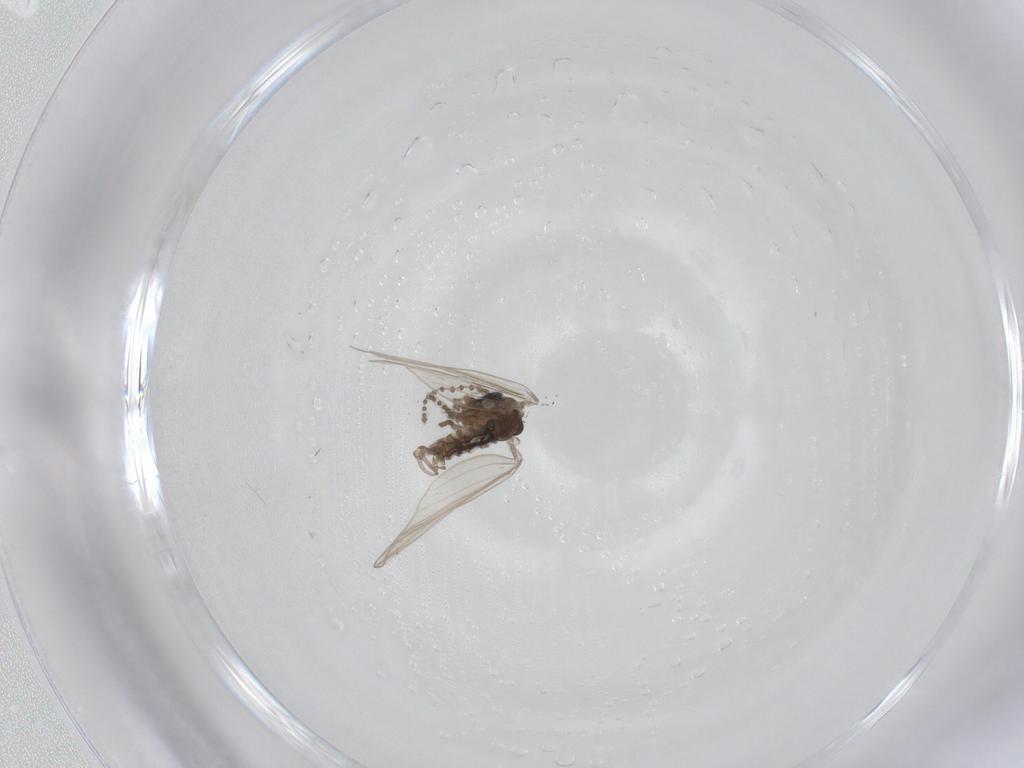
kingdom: Animalia
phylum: Arthropoda
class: Insecta
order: Diptera
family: Psychodidae
